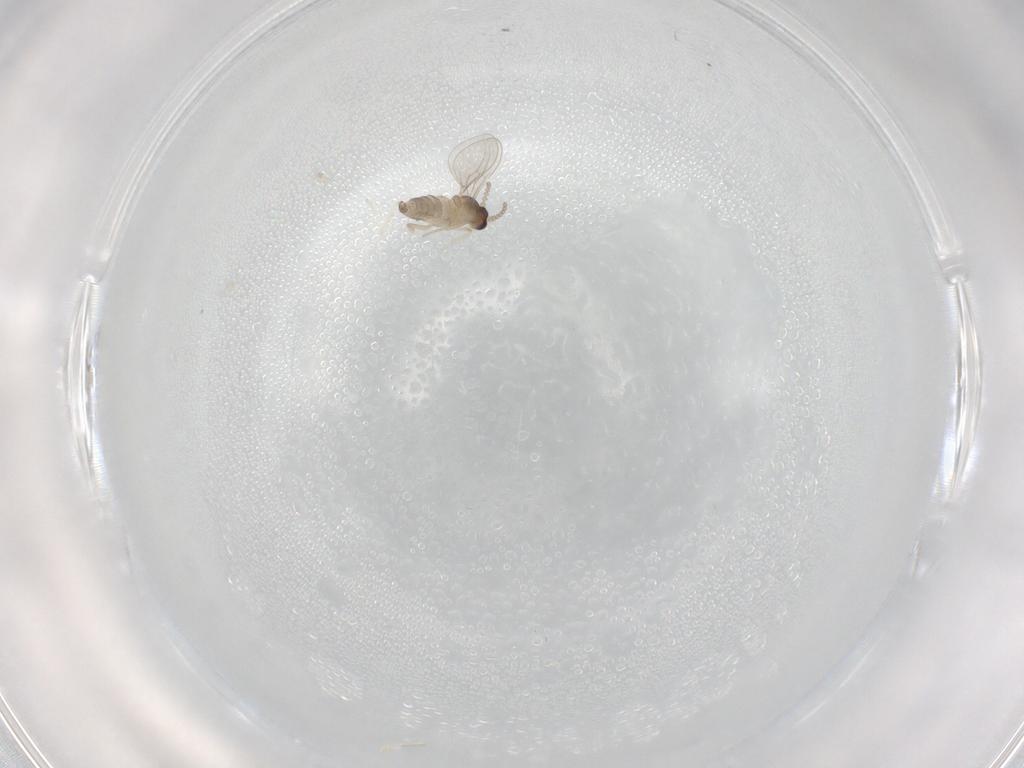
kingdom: Animalia
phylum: Arthropoda
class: Insecta
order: Diptera
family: Cecidomyiidae
